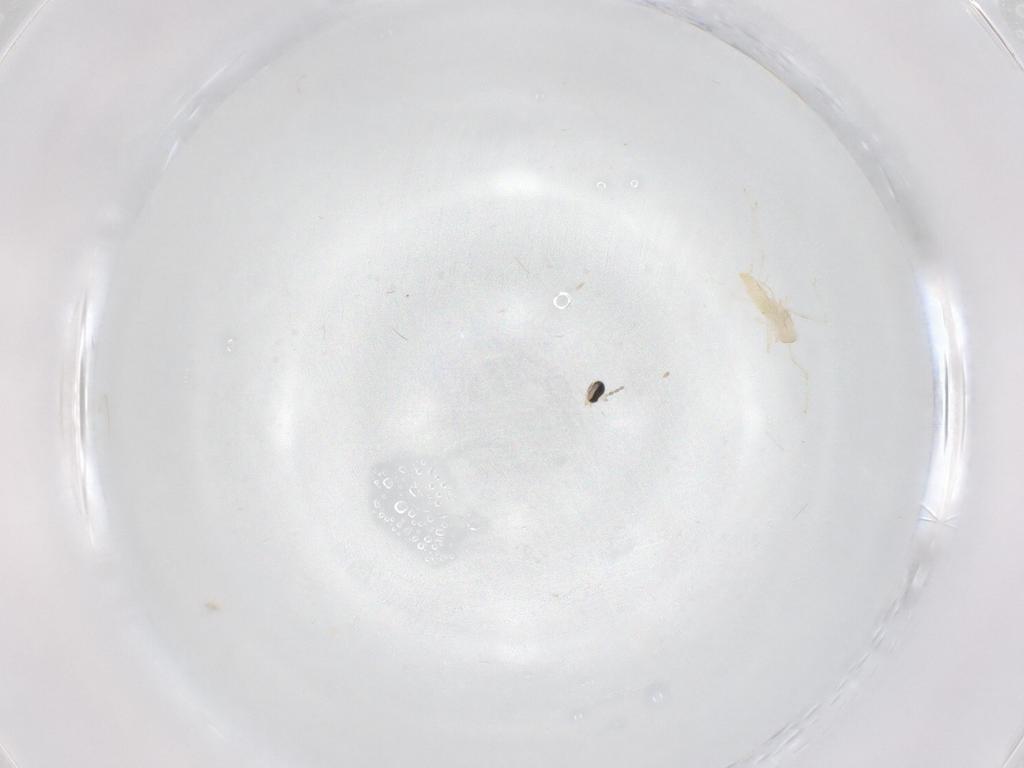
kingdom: Animalia
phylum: Arthropoda
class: Insecta
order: Diptera
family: Cecidomyiidae
